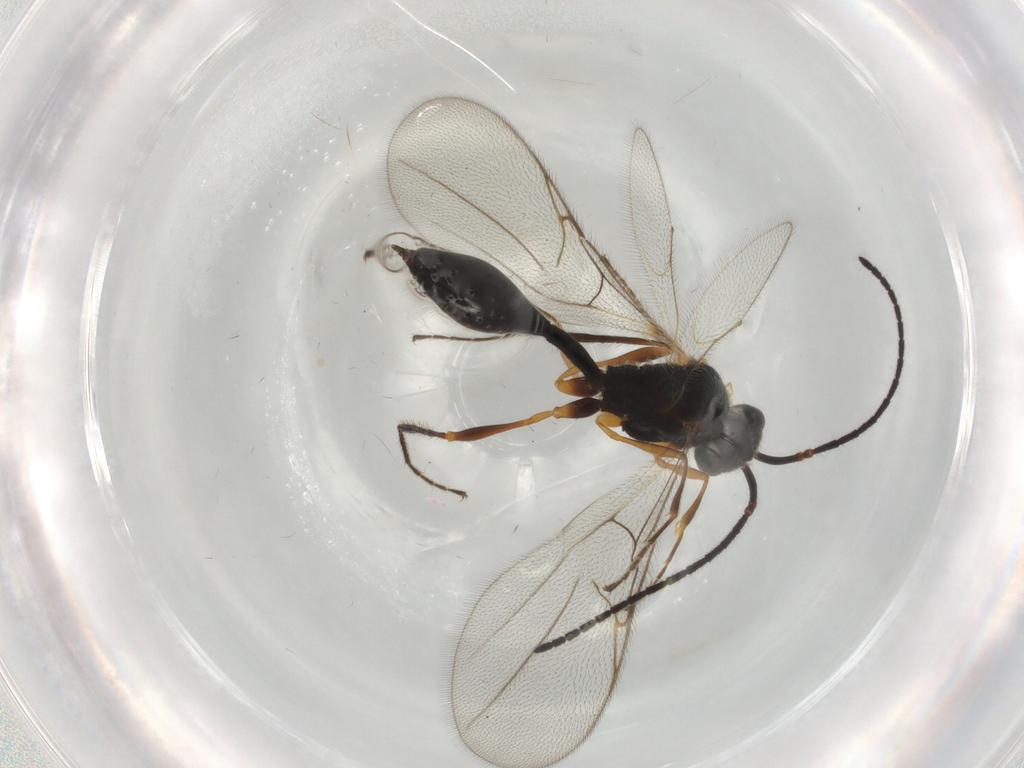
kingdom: Animalia
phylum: Arthropoda
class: Insecta
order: Hymenoptera
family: Diapriidae
